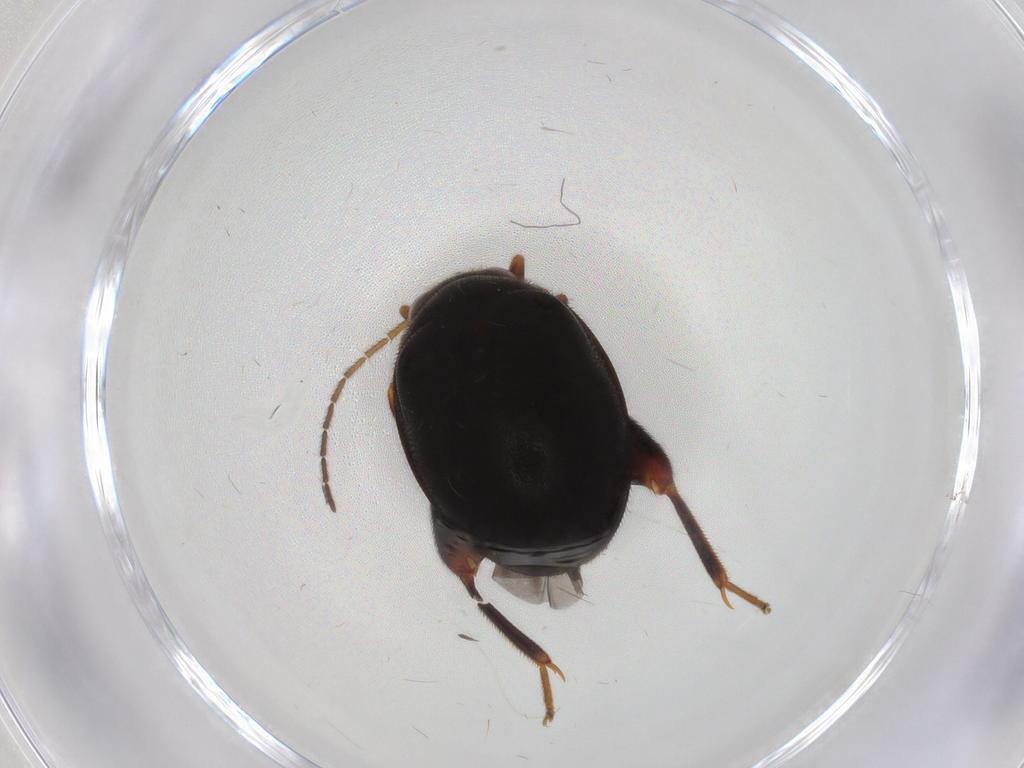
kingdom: Animalia
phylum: Arthropoda
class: Insecta
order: Coleoptera
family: Scirtidae
